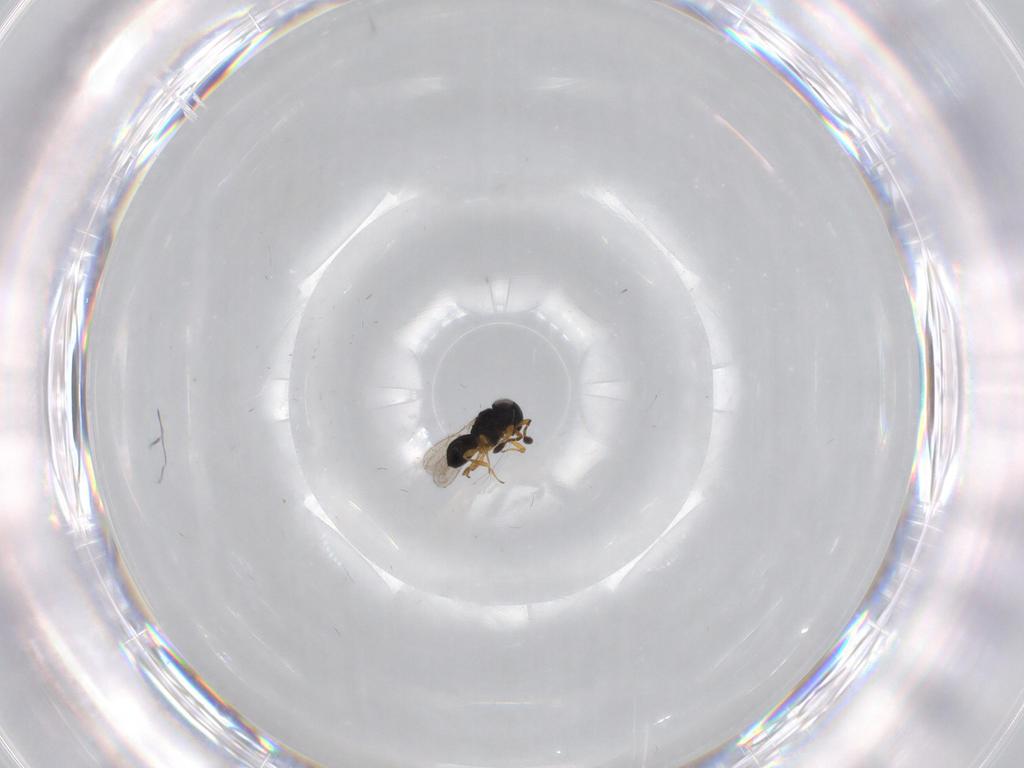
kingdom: Animalia
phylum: Arthropoda
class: Insecta
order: Hymenoptera
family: Scelionidae
